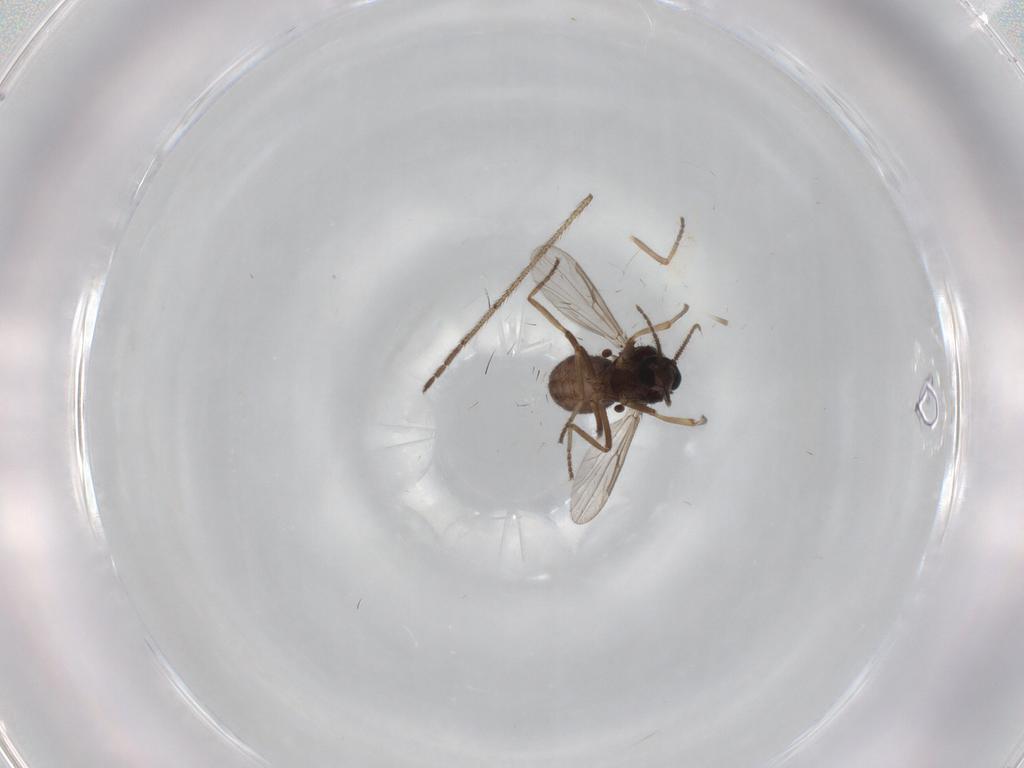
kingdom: Animalia
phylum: Arthropoda
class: Insecta
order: Diptera
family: Ceratopogonidae
